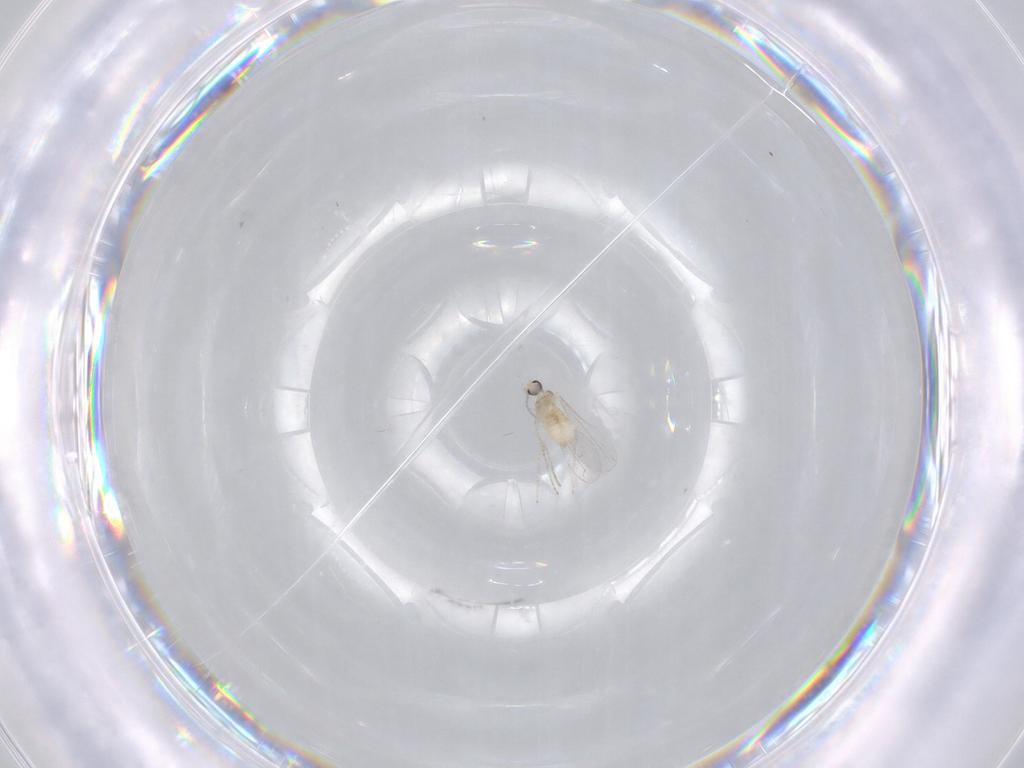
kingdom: Animalia
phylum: Arthropoda
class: Insecta
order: Diptera
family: Cecidomyiidae
